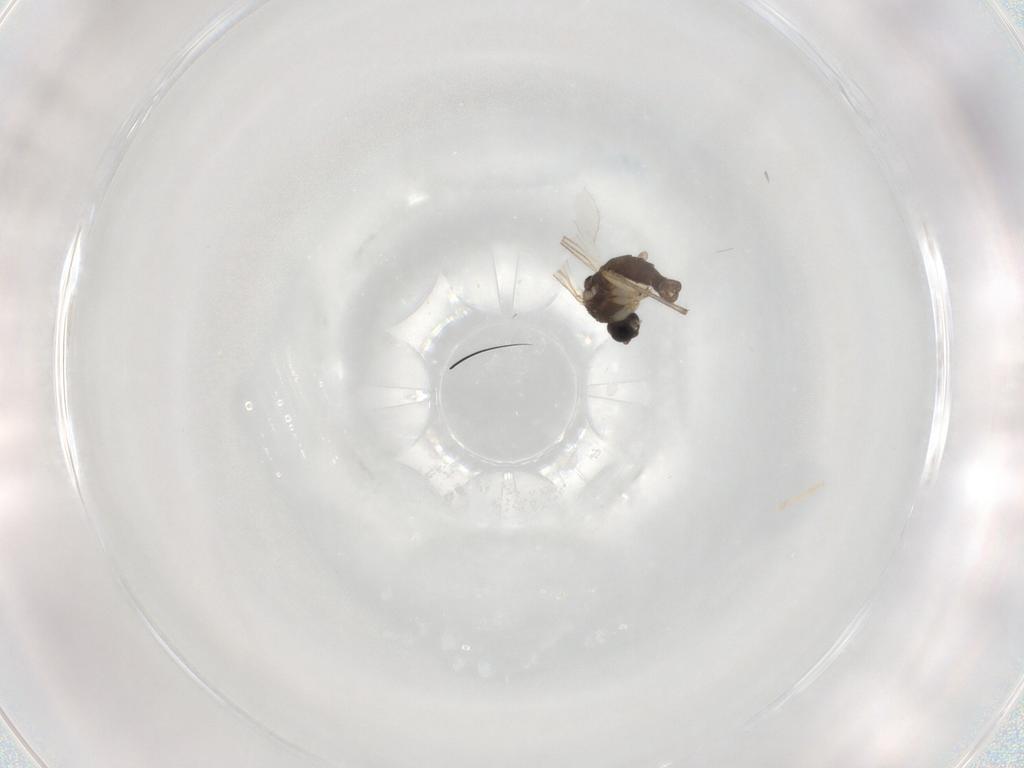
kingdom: Animalia
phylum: Arthropoda
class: Insecta
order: Diptera
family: Sciaridae
